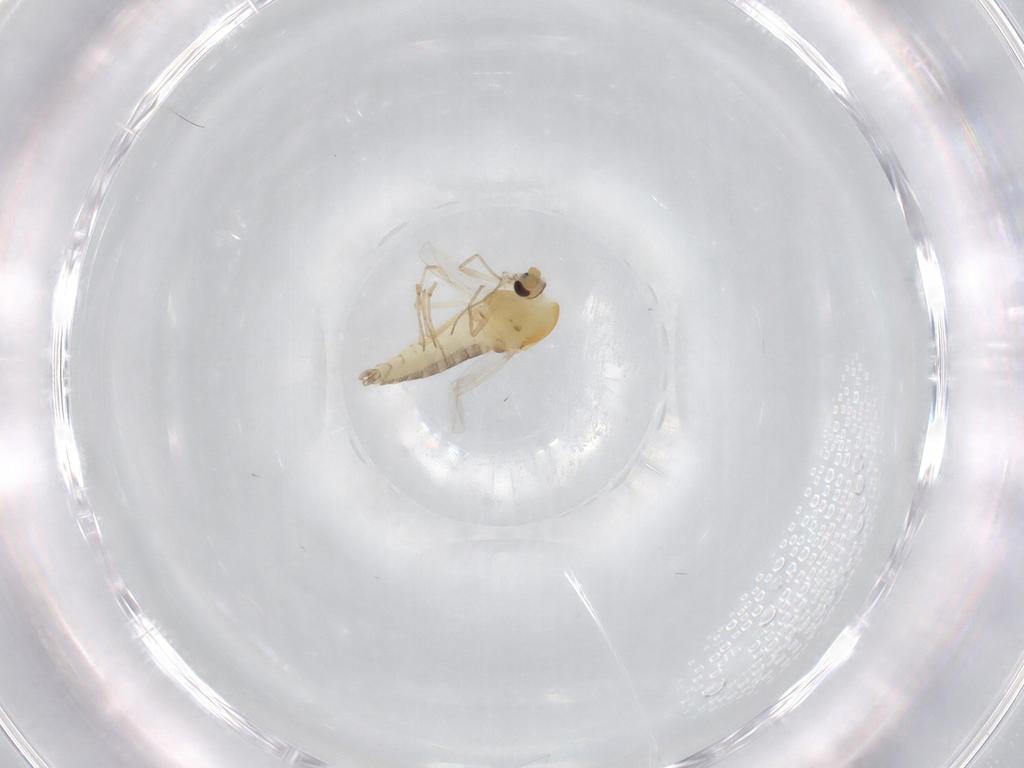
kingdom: Animalia
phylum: Arthropoda
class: Insecta
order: Diptera
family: Chironomidae
